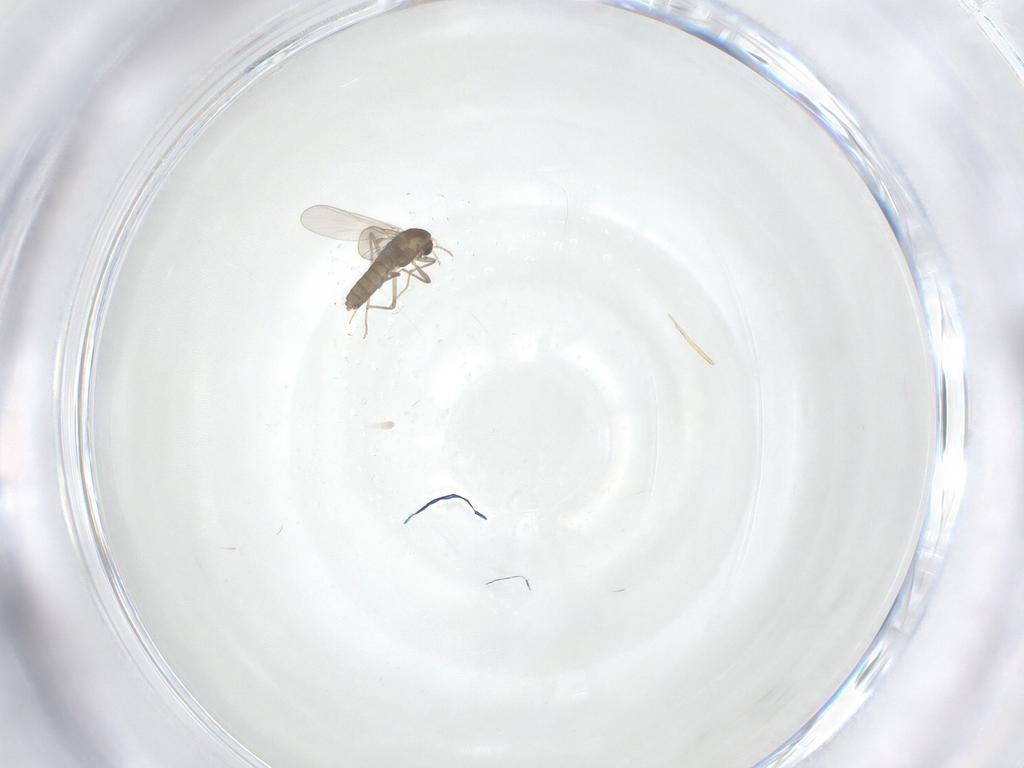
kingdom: Animalia
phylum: Arthropoda
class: Insecta
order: Diptera
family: Chironomidae
